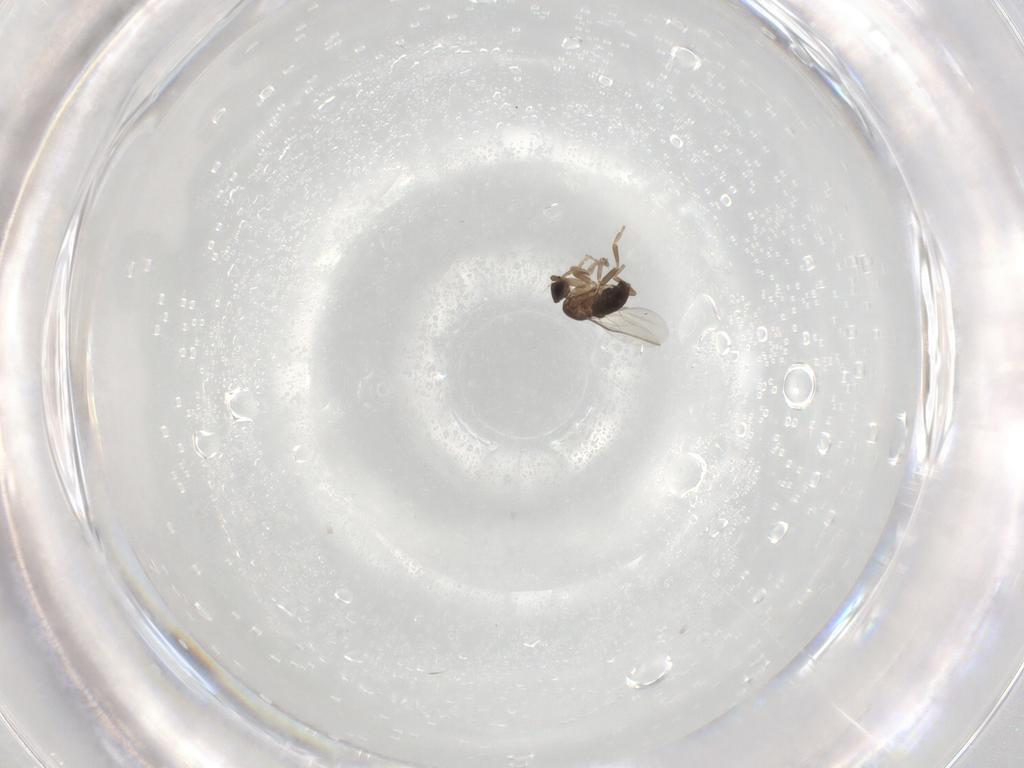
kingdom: Animalia
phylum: Arthropoda
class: Insecta
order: Diptera
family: Phoridae
